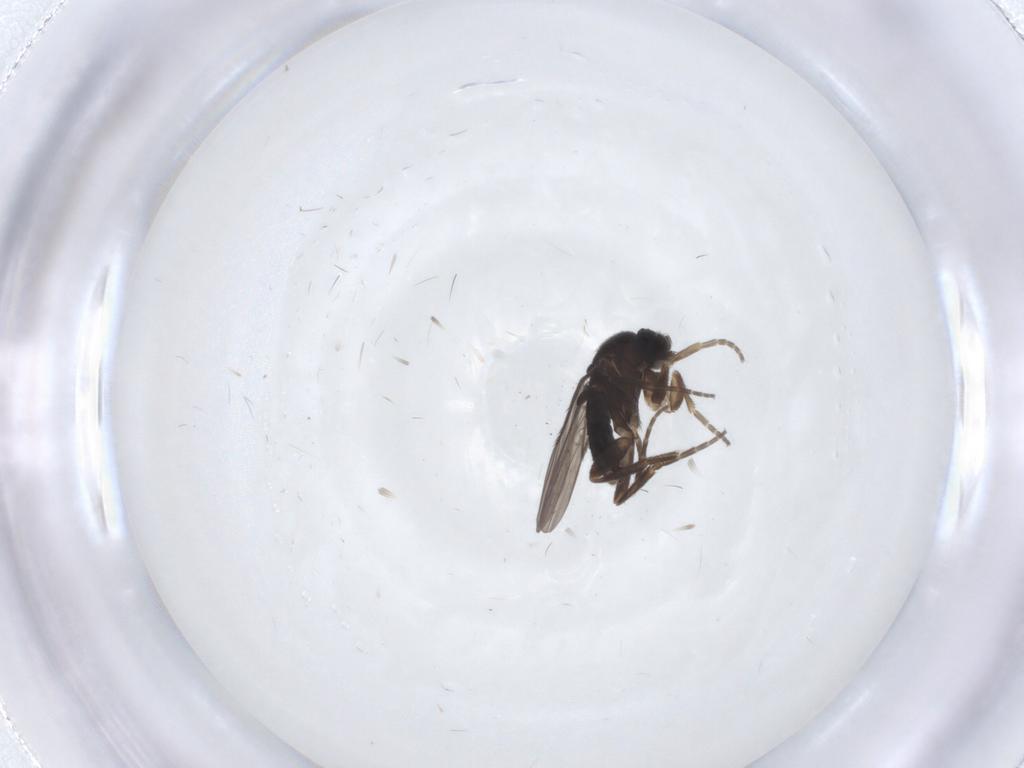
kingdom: Animalia
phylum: Arthropoda
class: Insecta
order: Diptera
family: Phoridae
